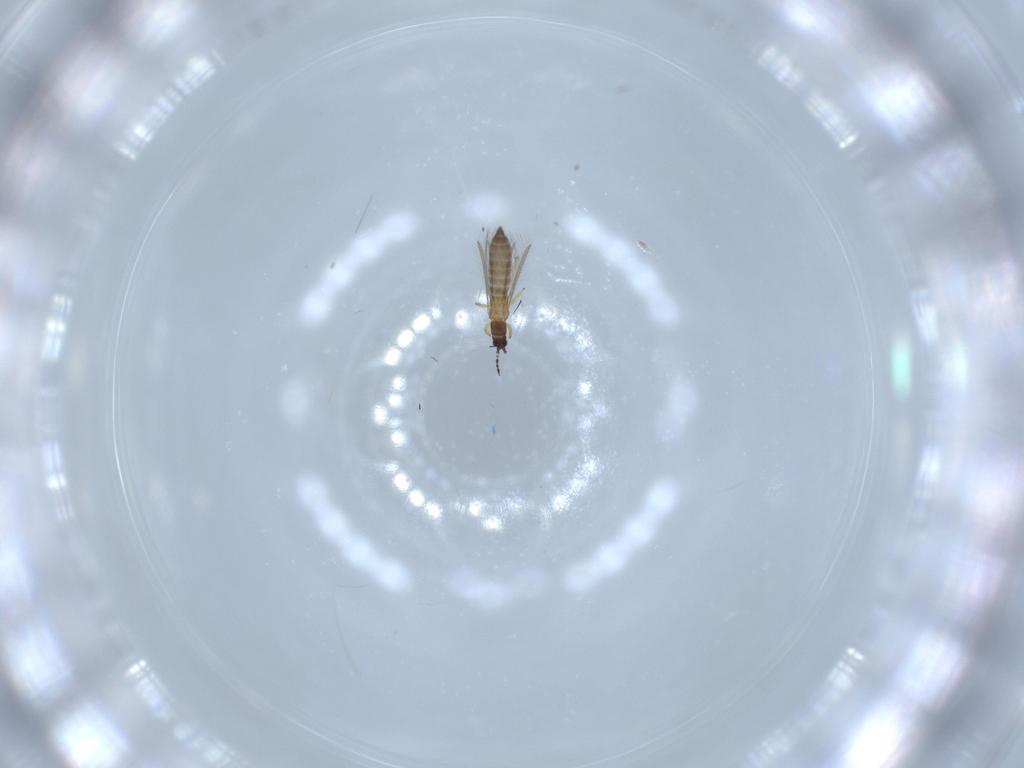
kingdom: Animalia
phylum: Arthropoda
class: Insecta
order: Thysanoptera
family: Thripidae
